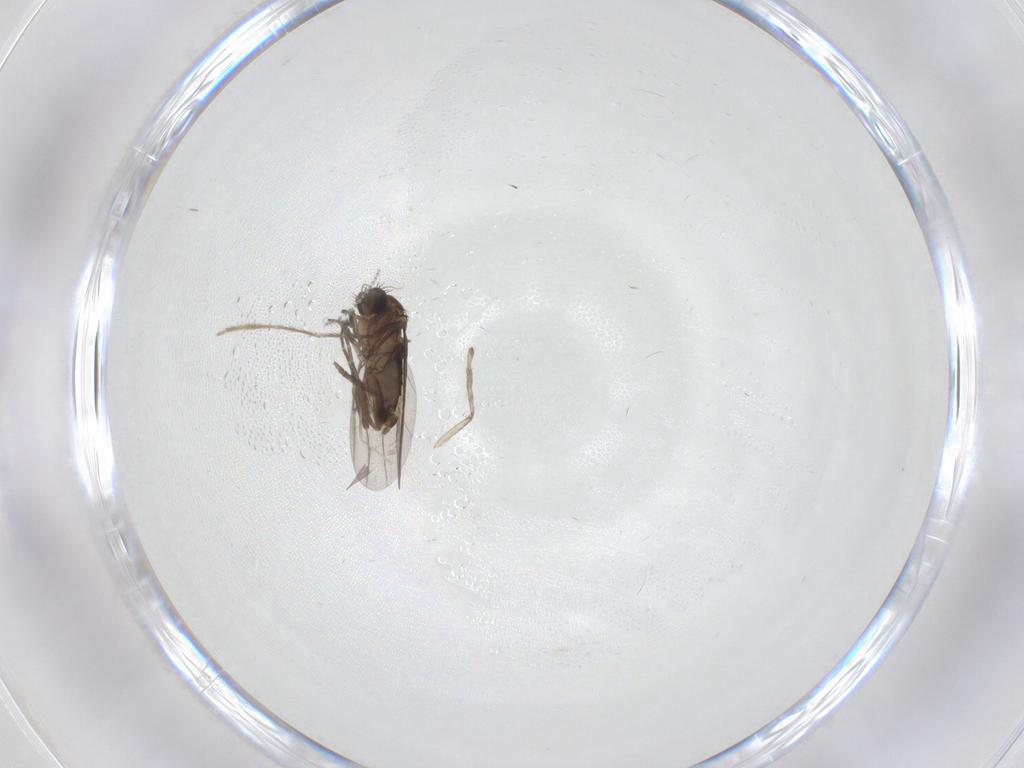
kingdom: Animalia
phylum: Arthropoda
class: Insecta
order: Diptera
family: Phoridae
